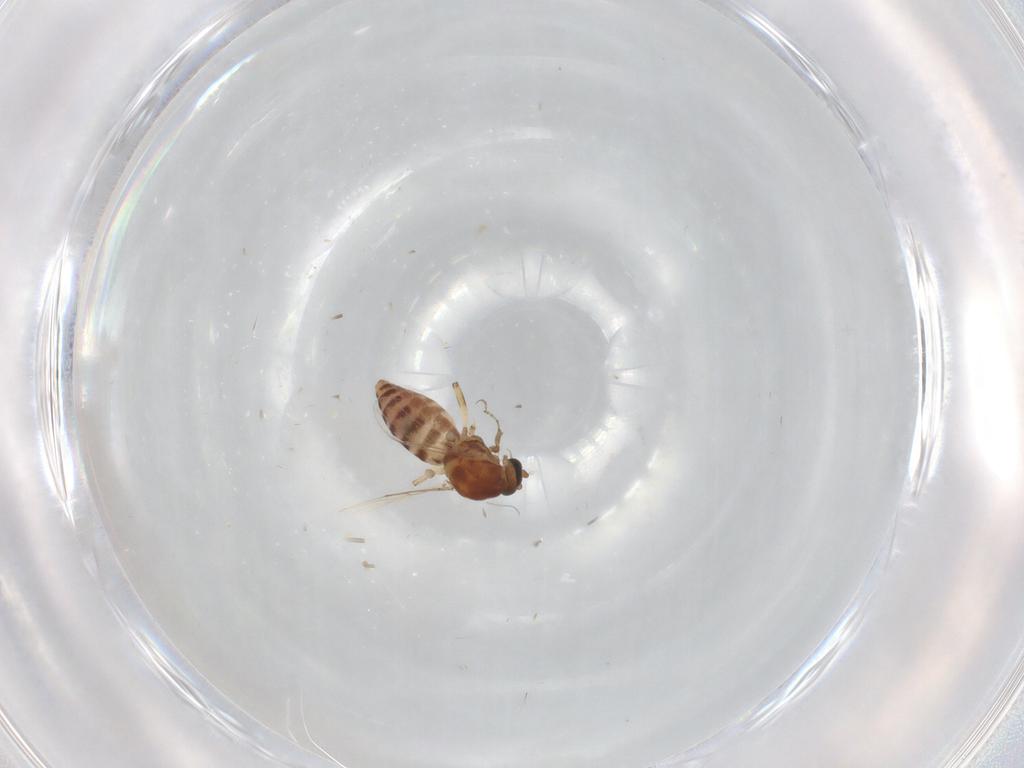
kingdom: Animalia
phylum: Arthropoda
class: Insecta
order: Diptera
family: Ceratopogonidae
